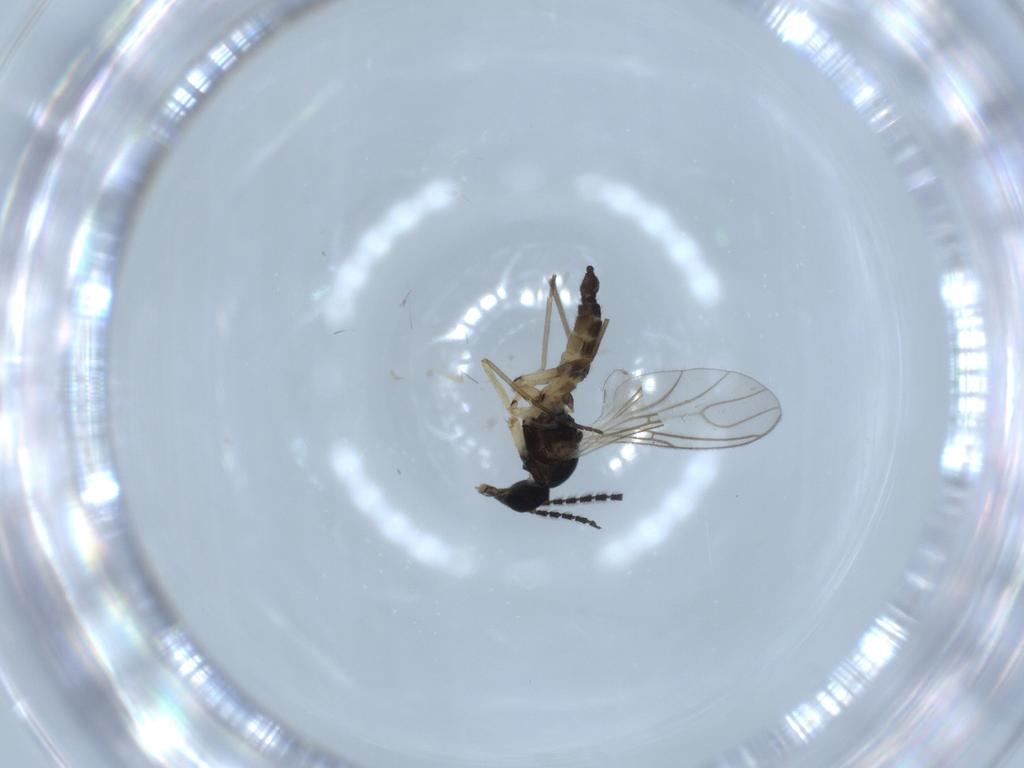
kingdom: Animalia
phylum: Arthropoda
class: Insecta
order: Diptera
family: Sciaridae
